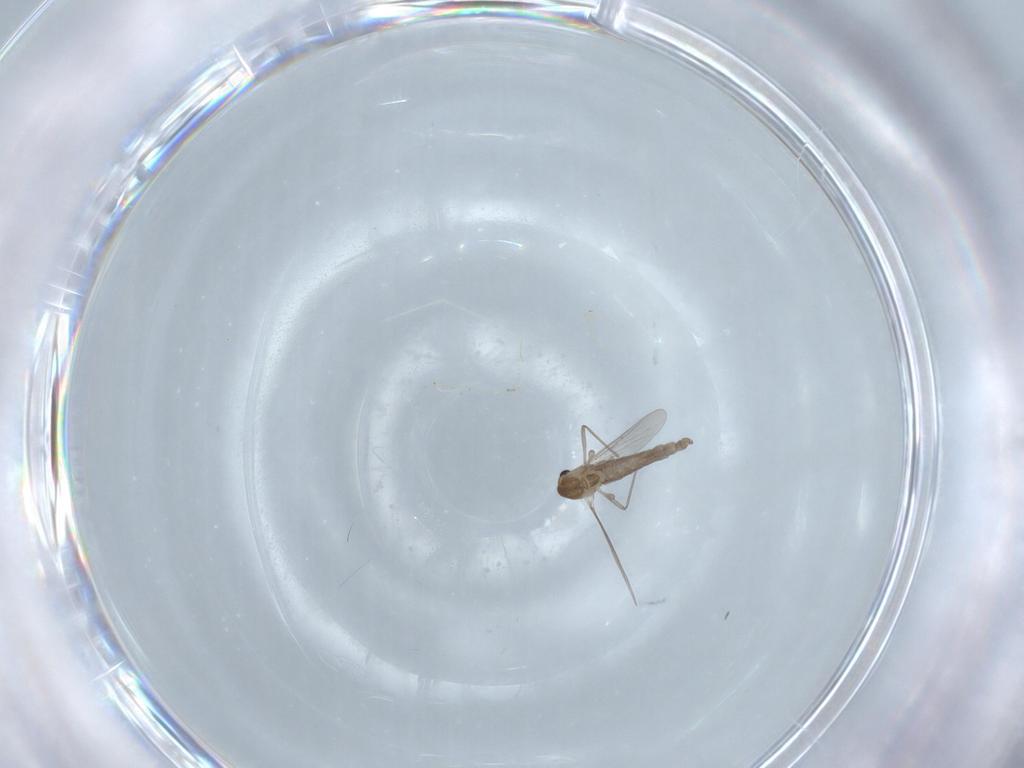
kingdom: Animalia
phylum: Arthropoda
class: Insecta
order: Diptera
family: Chironomidae
